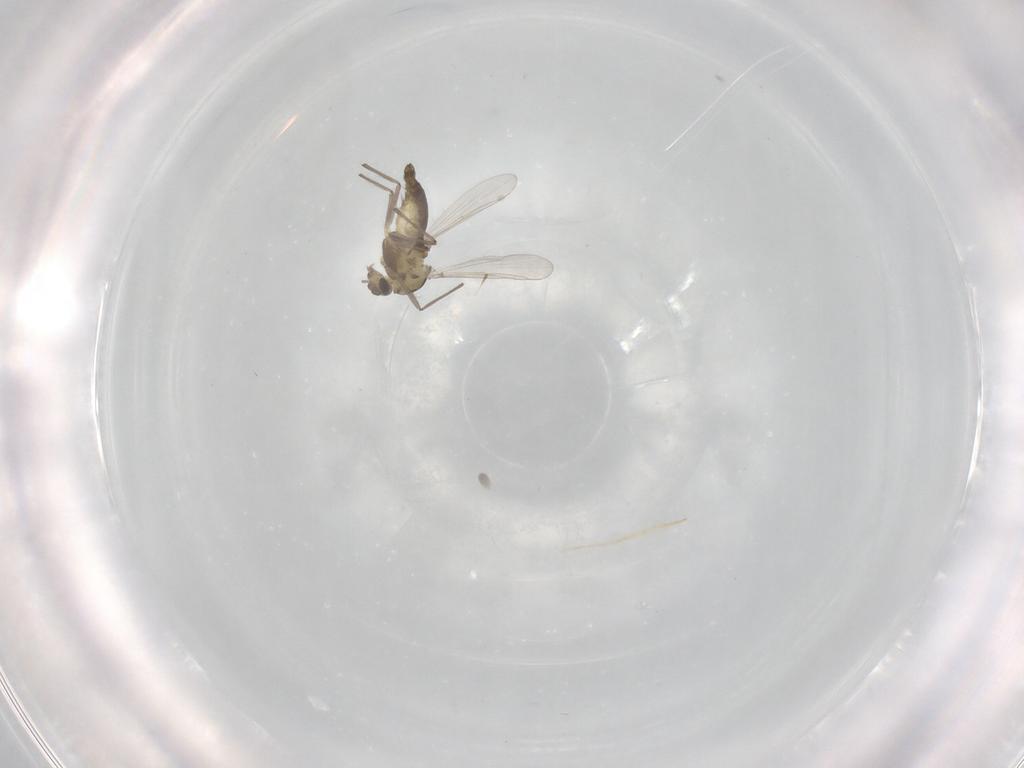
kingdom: Animalia
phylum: Arthropoda
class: Insecta
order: Diptera
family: Chironomidae
